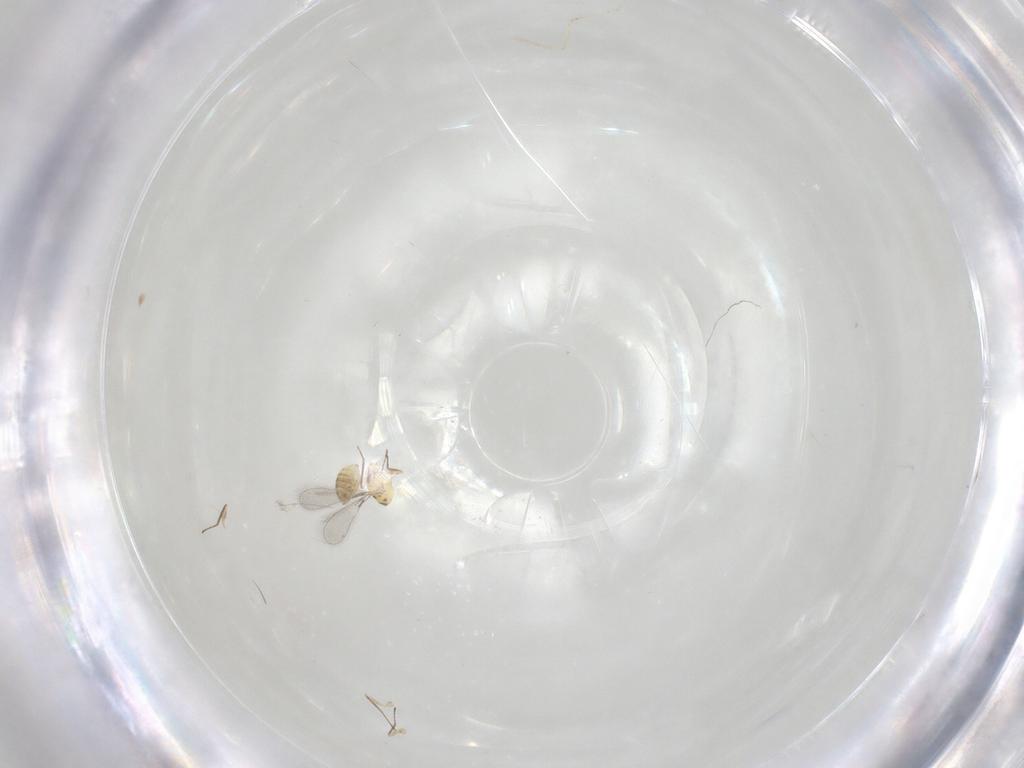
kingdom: Animalia
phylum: Arthropoda
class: Insecta
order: Hymenoptera
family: Mymaridae
